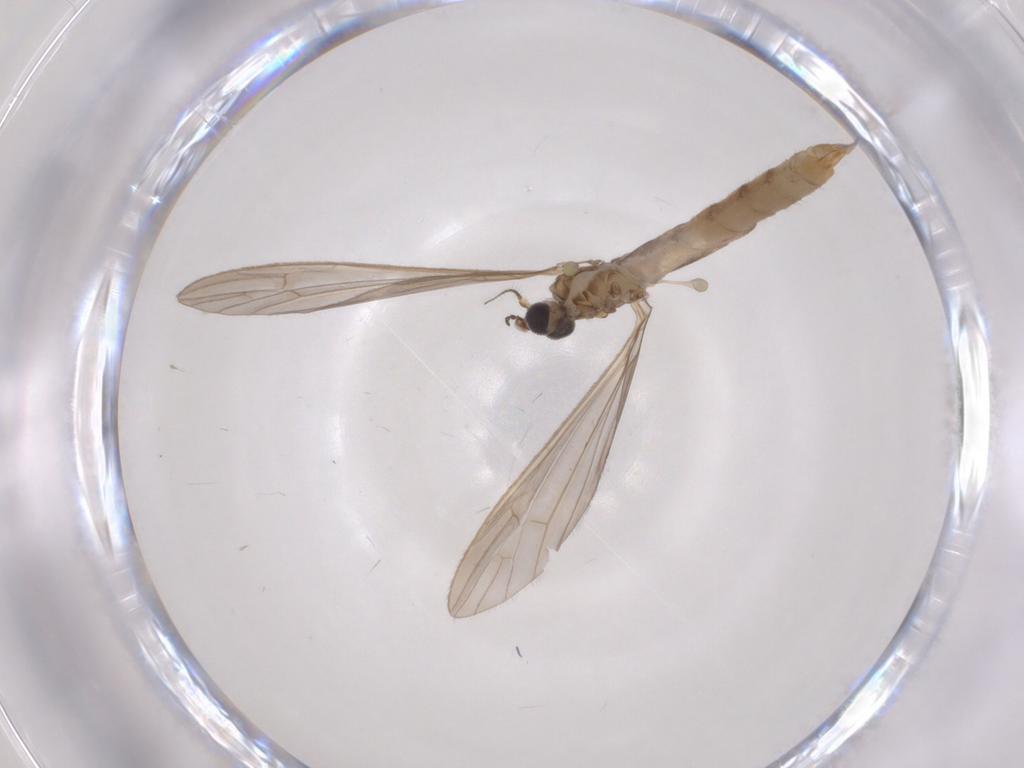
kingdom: Animalia
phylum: Arthropoda
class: Insecta
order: Diptera
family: Limoniidae
